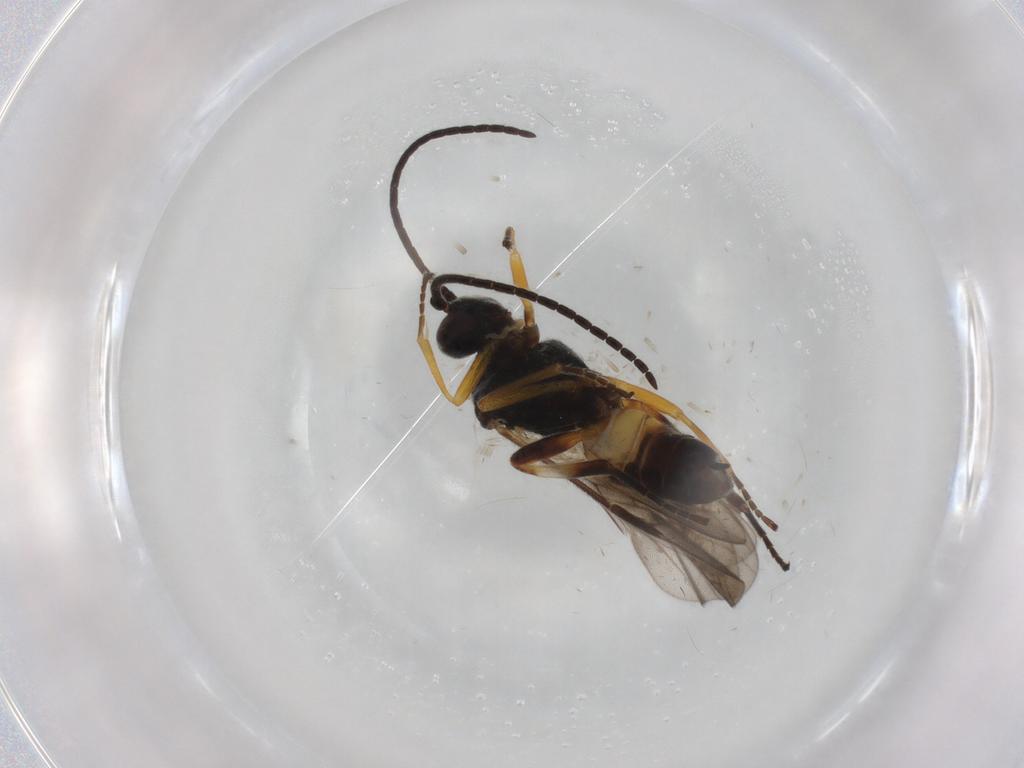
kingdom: Animalia
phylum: Arthropoda
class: Insecta
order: Hymenoptera
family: Braconidae
